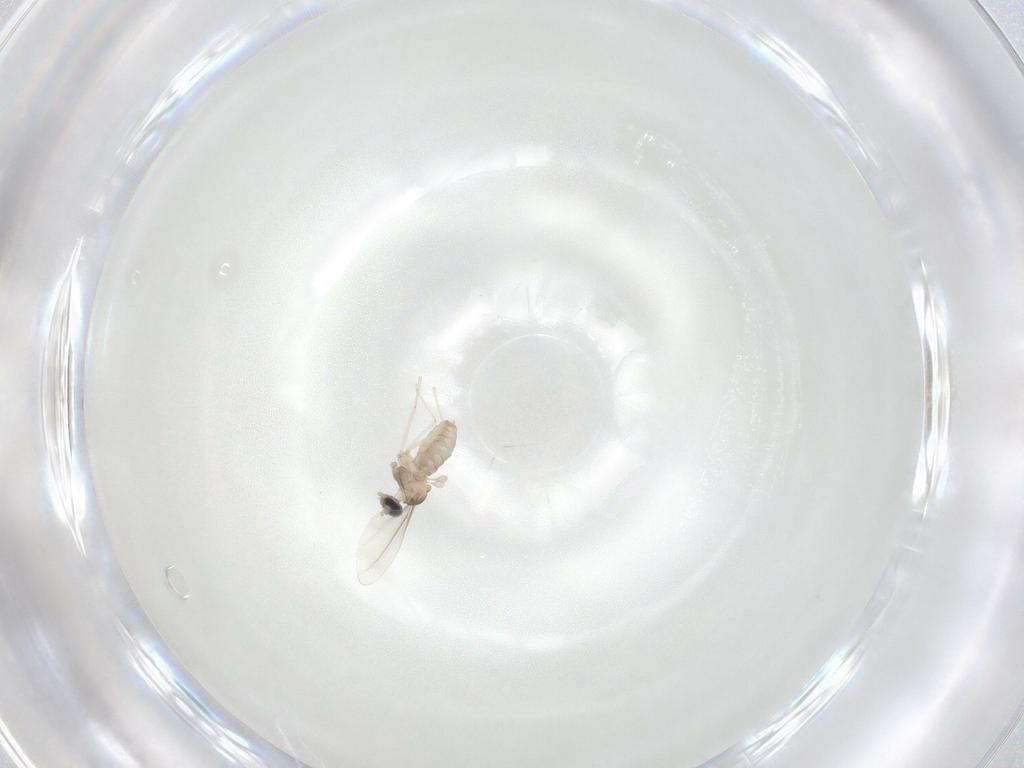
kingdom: Animalia
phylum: Arthropoda
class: Insecta
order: Diptera
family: Cecidomyiidae
